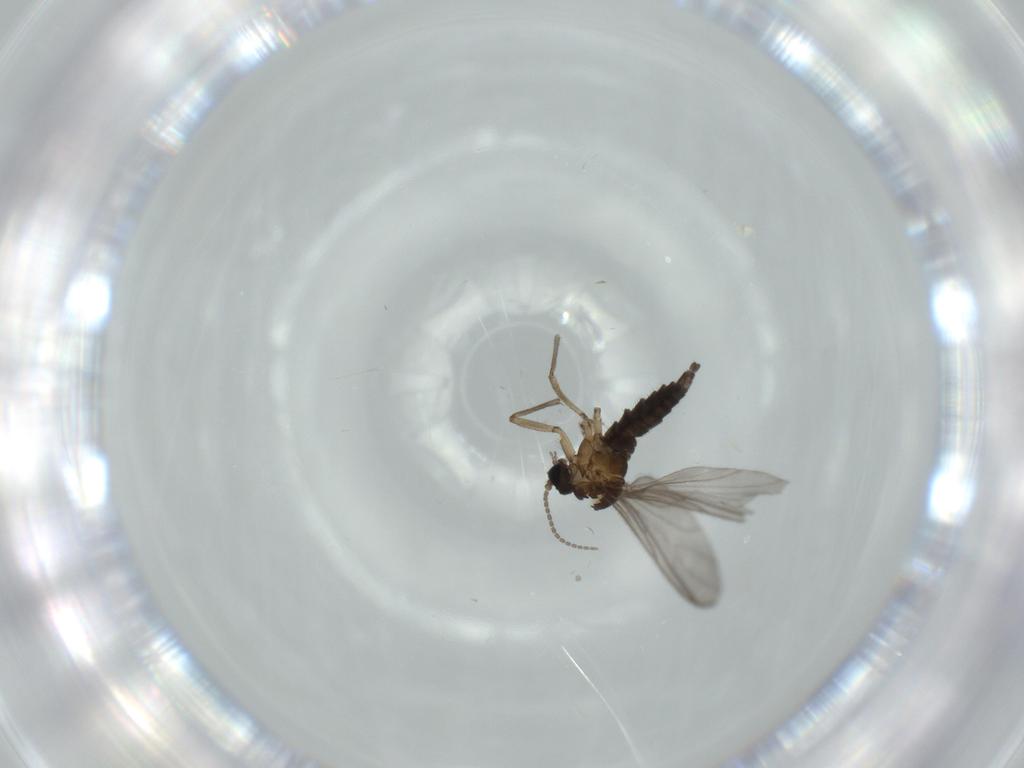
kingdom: Animalia
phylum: Arthropoda
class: Insecta
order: Diptera
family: Sciaridae
